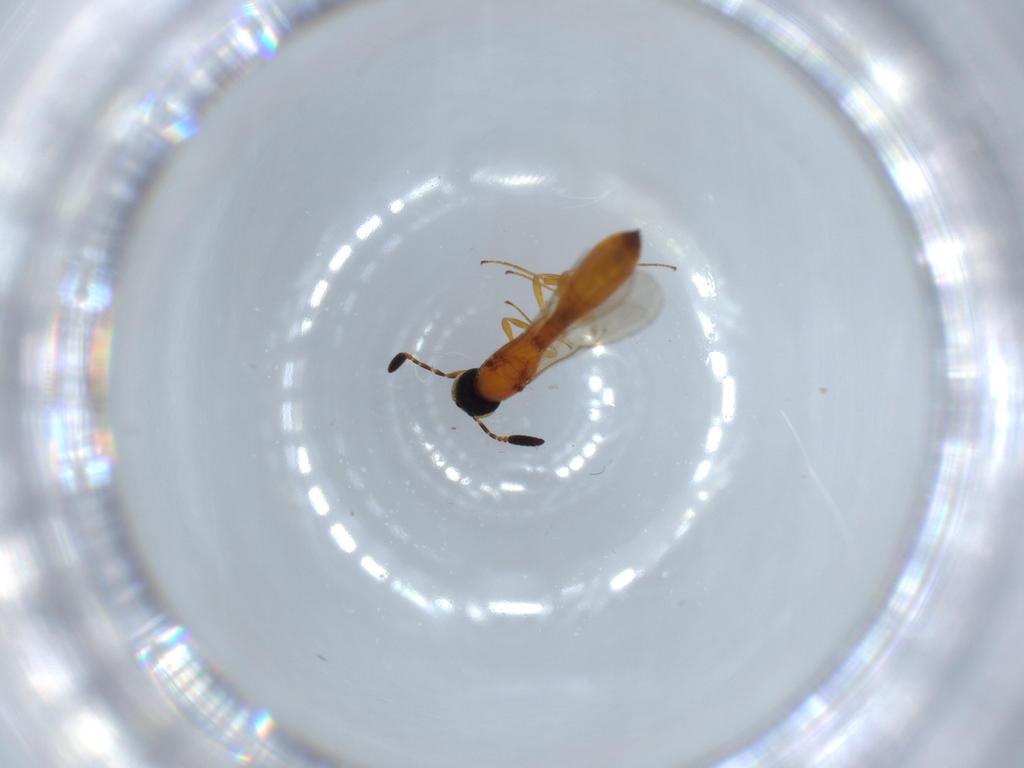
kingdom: Animalia
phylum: Arthropoda
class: Insecta
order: Hymenoptera
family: Scelionidae
